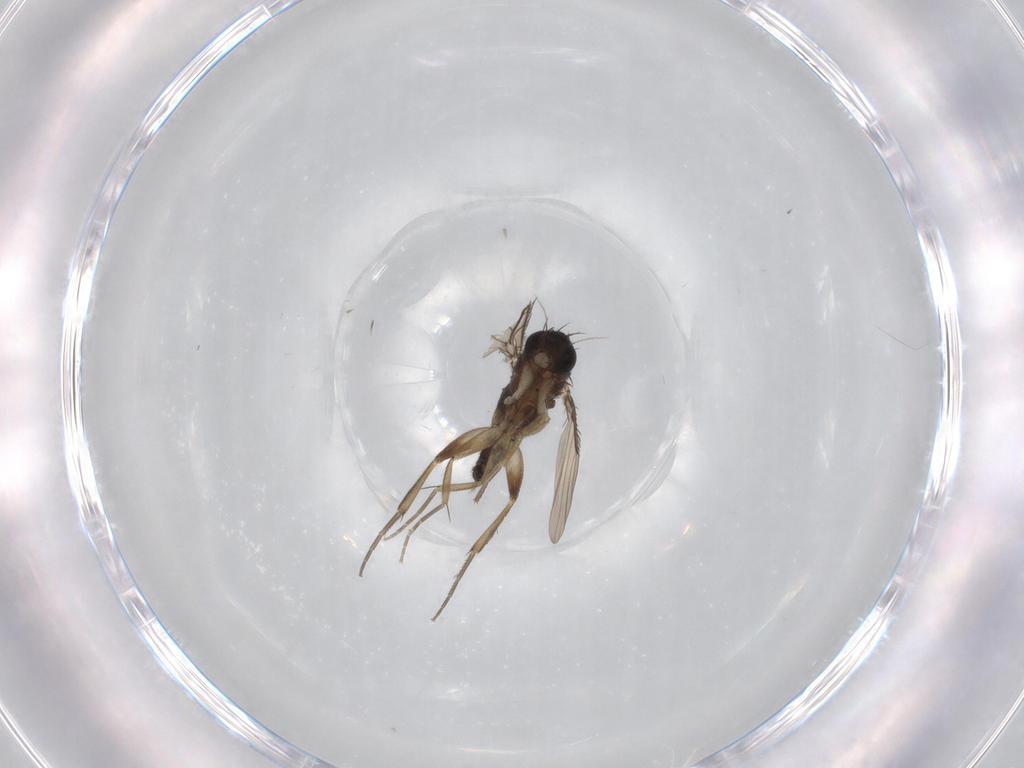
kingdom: Animalia
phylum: Arthropoda
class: Insecta
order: Diptera
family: Phoridae
